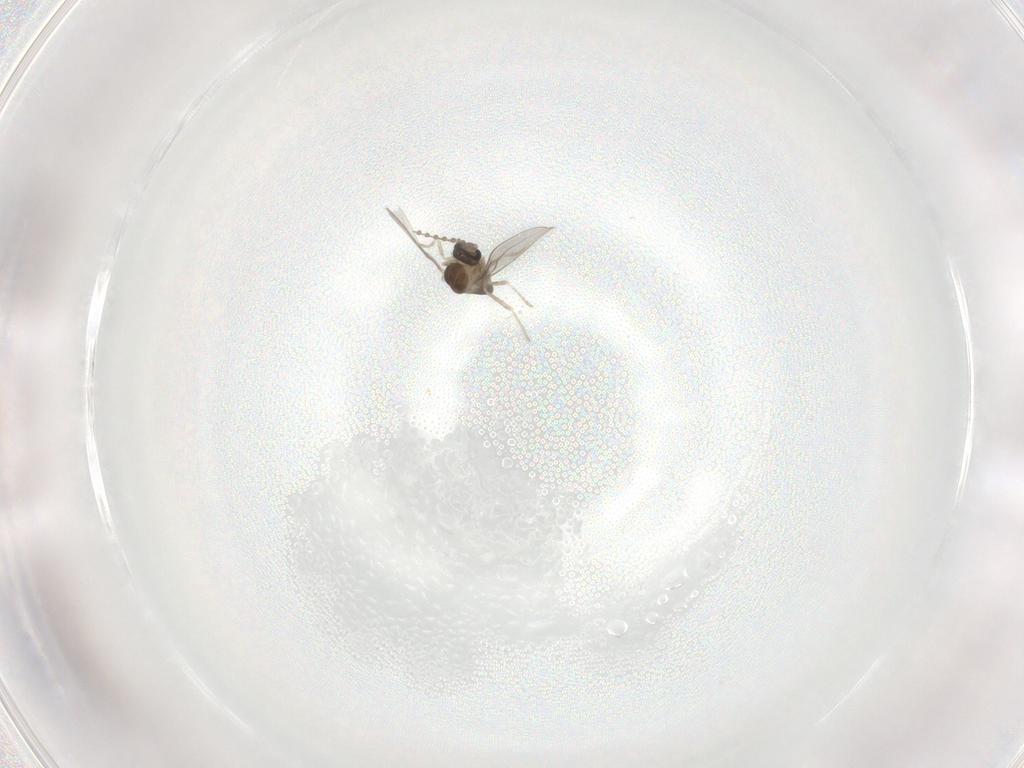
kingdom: Animalia
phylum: Arthropoda
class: Insecta
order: Diptera
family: Cecidomyiidae
